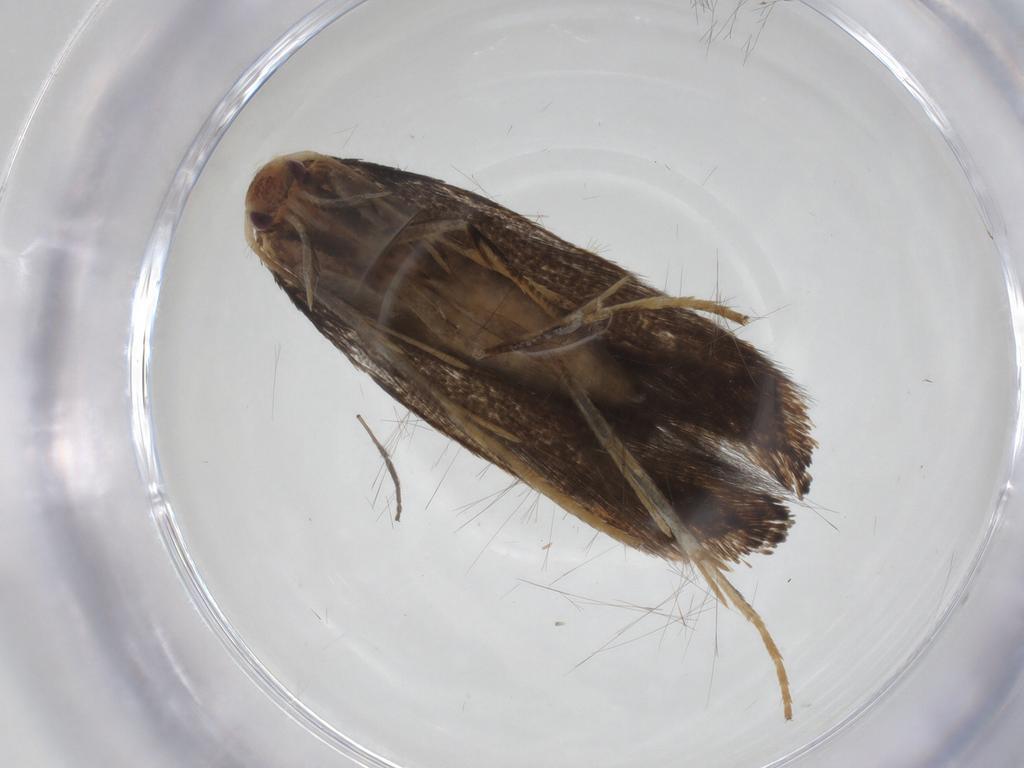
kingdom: Animalia
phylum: Arthropoda
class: Insecta
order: Lepidoptera
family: Momphidae
